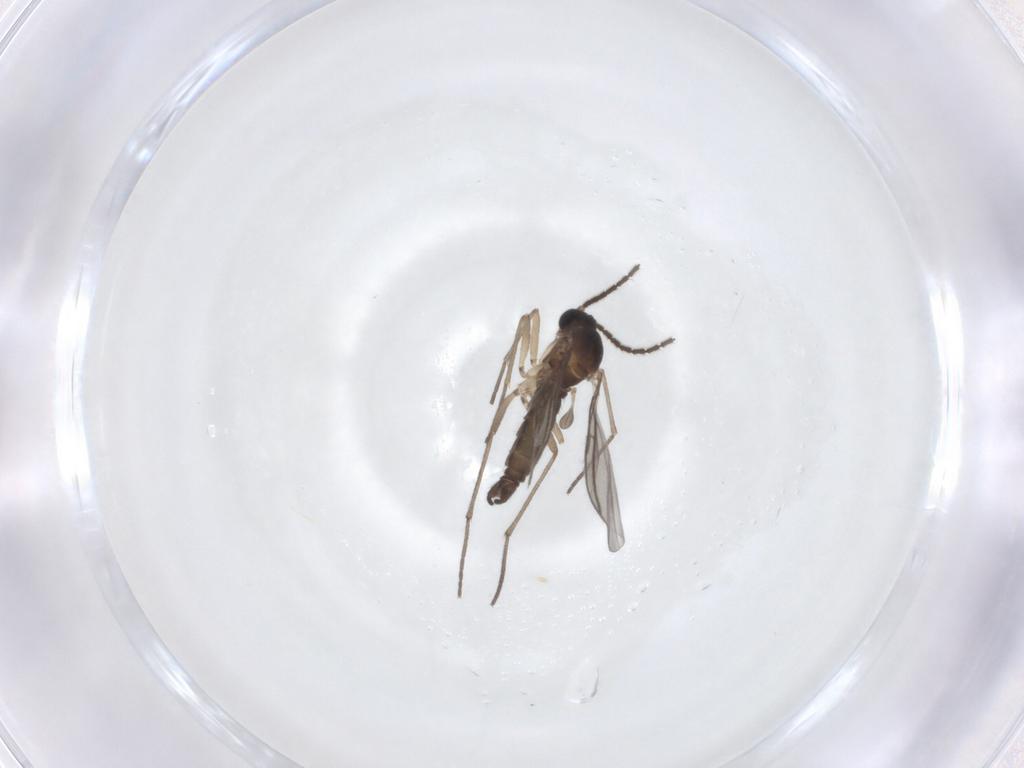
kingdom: Animalia
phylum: Arthropoda
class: Insecta
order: Diptera
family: Sciaridae
